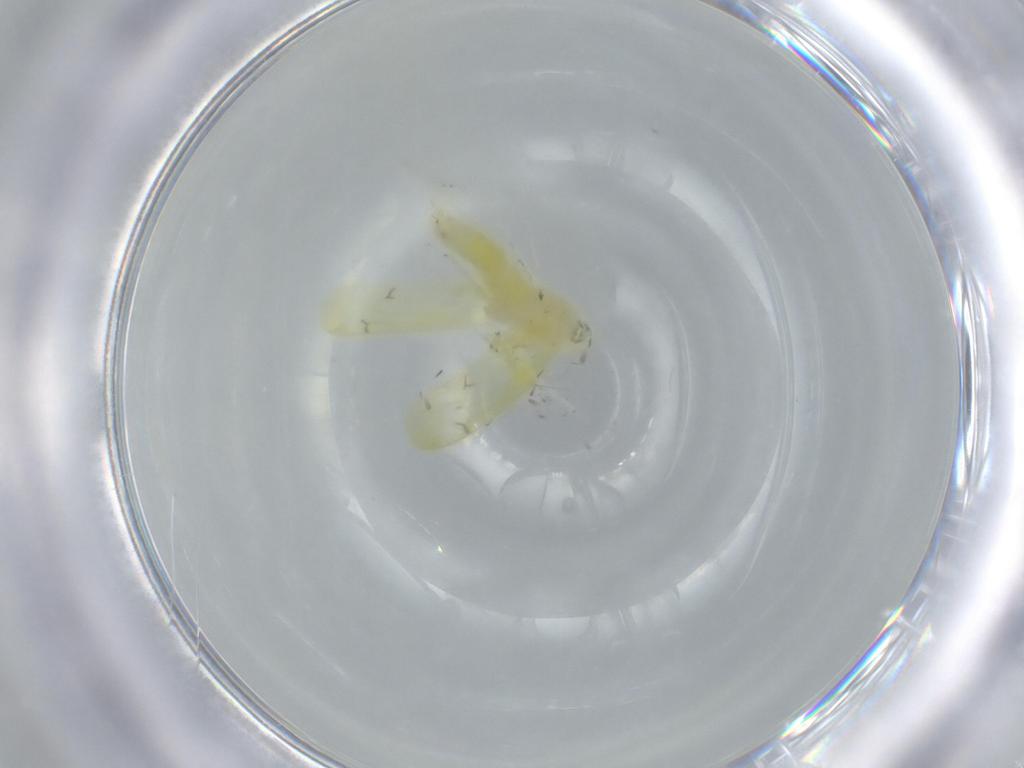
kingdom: Animalia
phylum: Arthropoda
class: Insecta
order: Hemiptera
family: Cicadellidae
